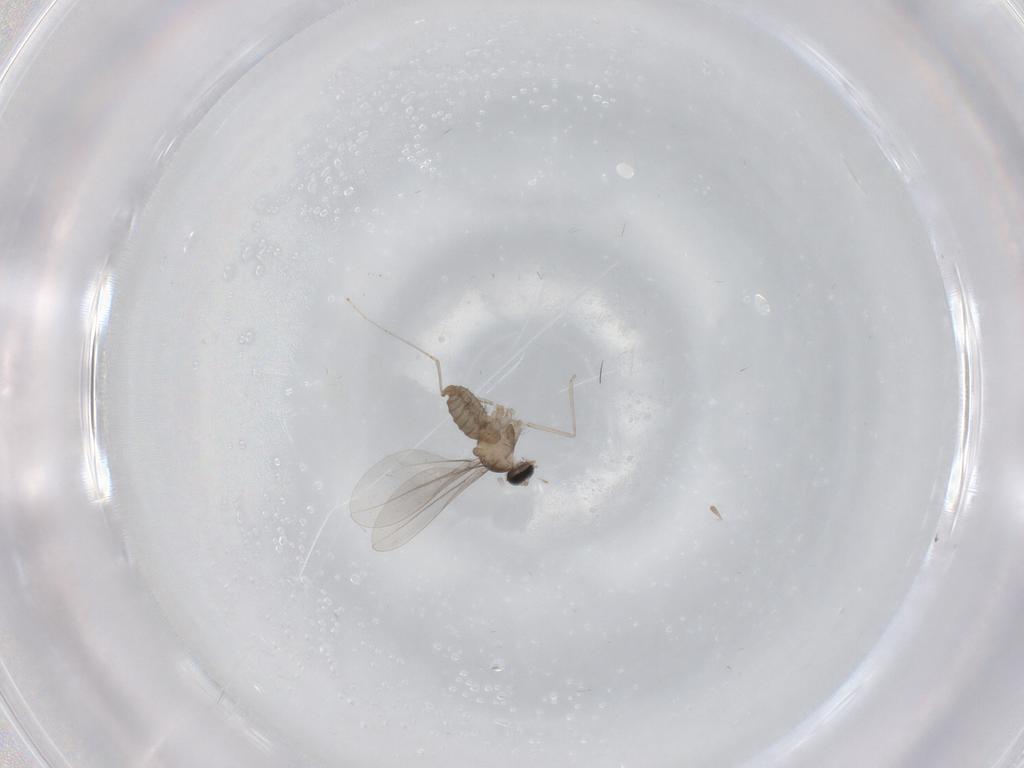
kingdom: Animalia
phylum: Arthropoda
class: Insecta
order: Diptera
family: Cecidomyiidae
